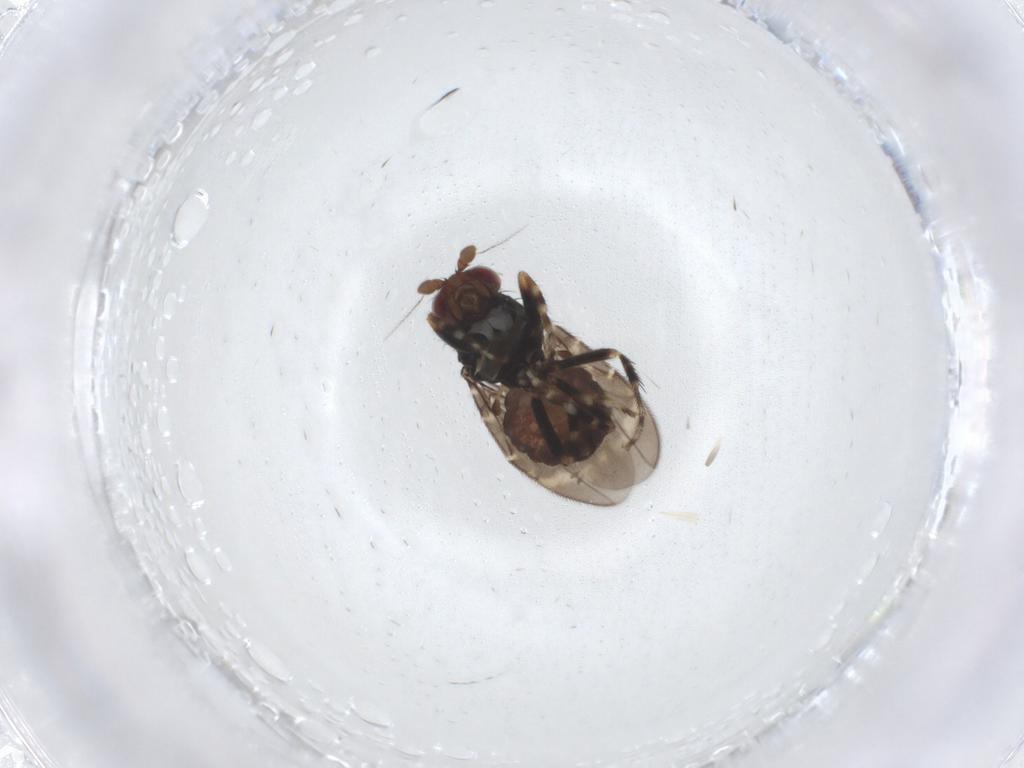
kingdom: Animalia
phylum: Arthropoda
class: Insecta
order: Diptera
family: Sphaeroceridae
